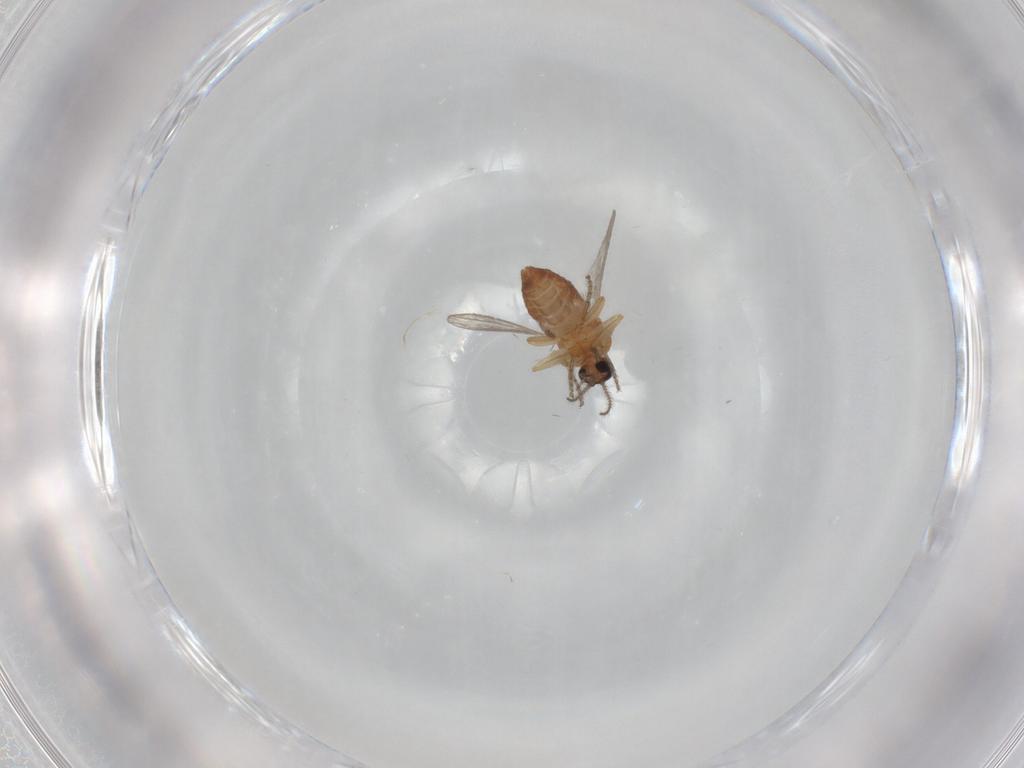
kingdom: Animalia
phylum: Arthropoda
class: Insecta
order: Diptera
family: Ceratopogonidae
